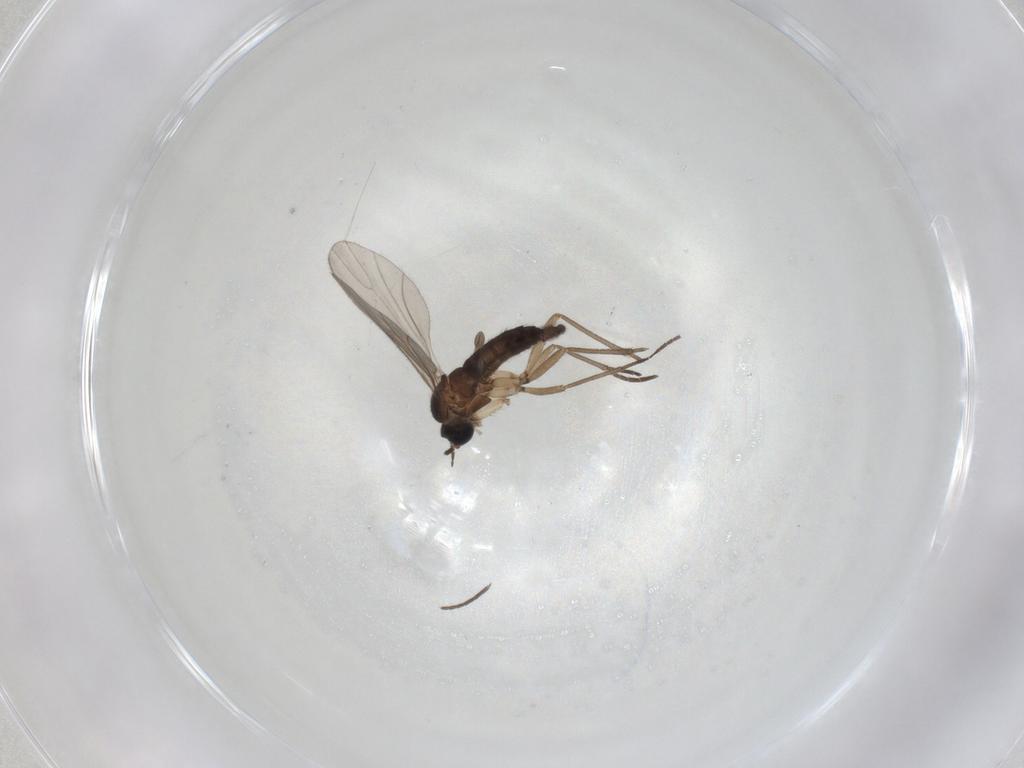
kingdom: Animalia
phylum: Arthropoda
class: Insecta
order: Diptera
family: Chironomidae
